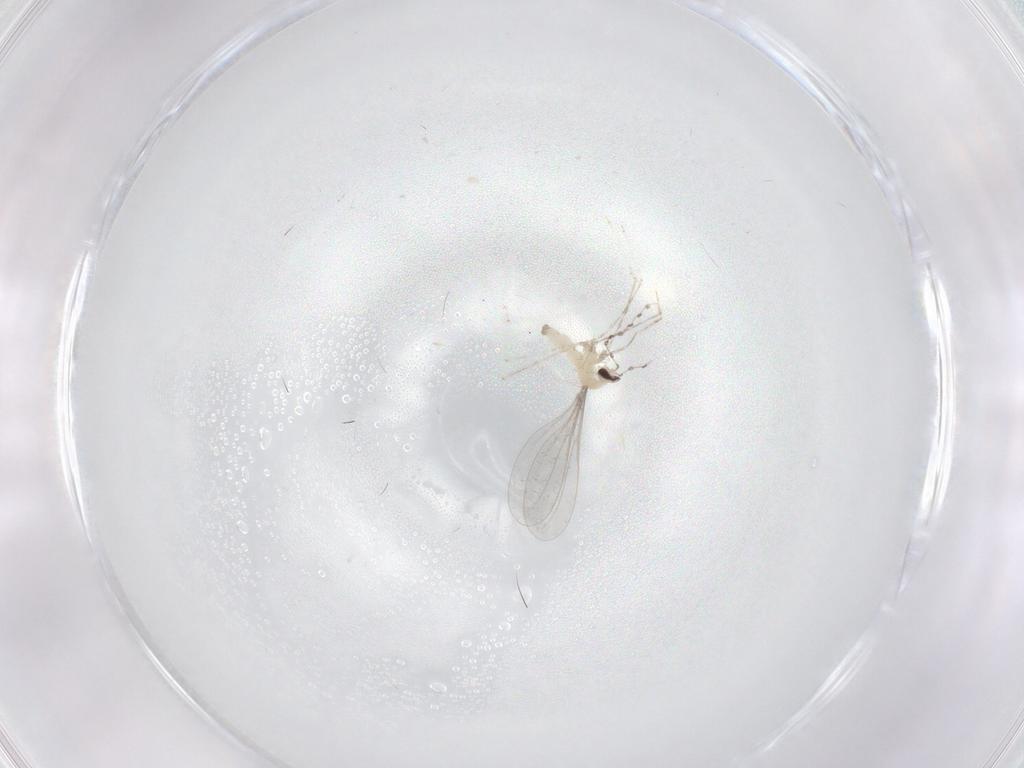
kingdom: Animalia
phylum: Arthropoda
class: Insecta
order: Diptera
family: Cecidomyiidae
